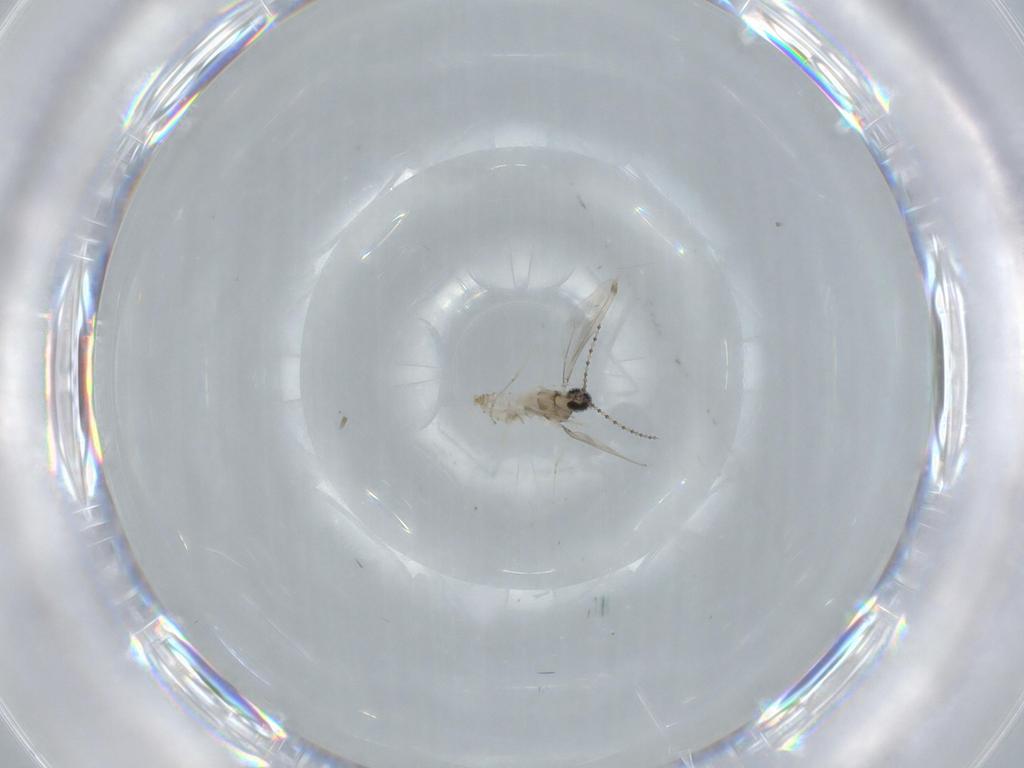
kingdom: Animalia
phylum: Arthropoda
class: Insecta
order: Diptera
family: Cecidomyiidae
